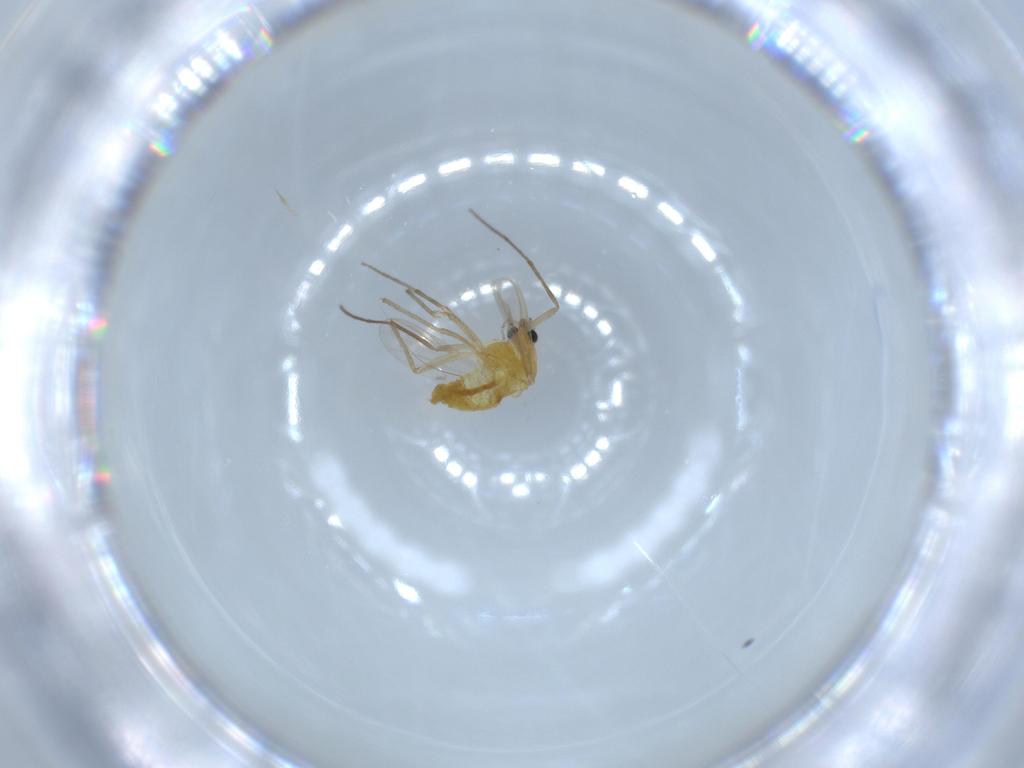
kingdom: Animalia
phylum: Arthropoda
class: Insecta
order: Diptera
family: Chironomidae
